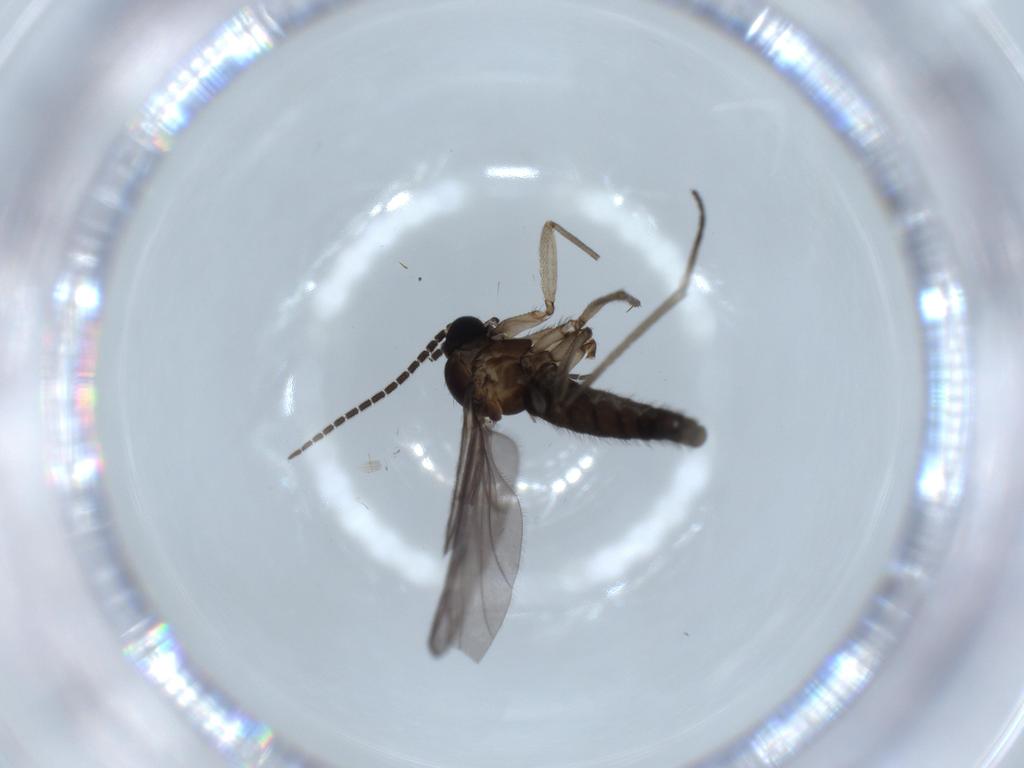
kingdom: Animalia
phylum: Arthropoda
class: Insecta
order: Diptera
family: Sciaridae
